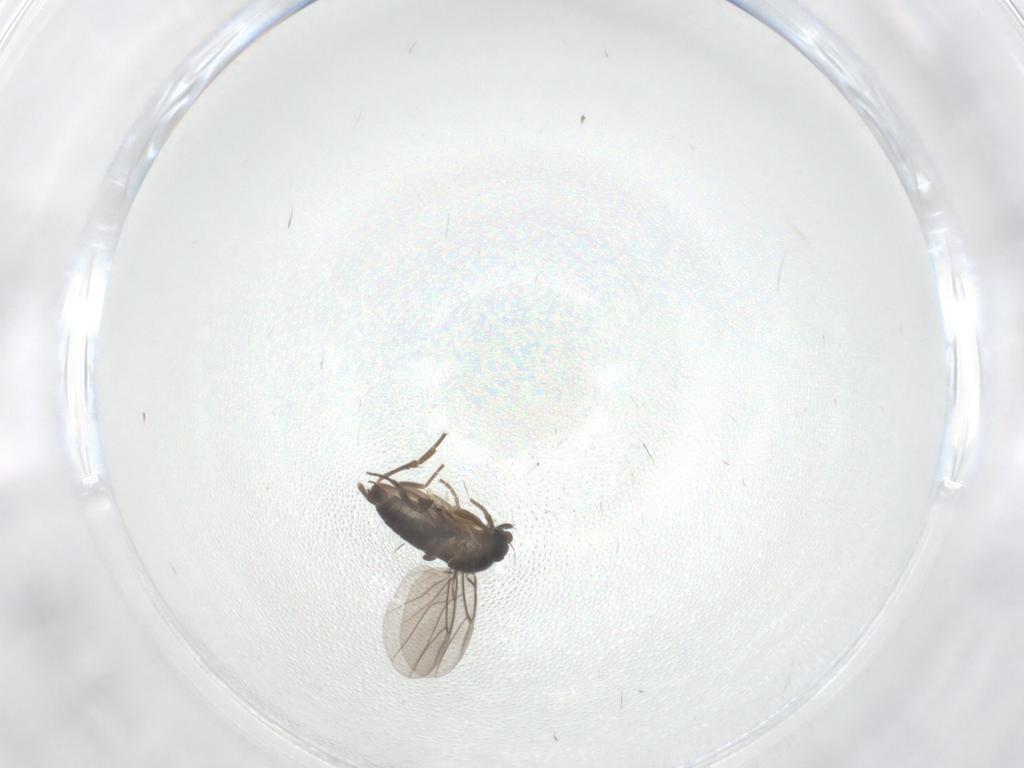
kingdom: Animalia
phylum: Arthropoda
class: Insecta
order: Diptera
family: Phoridae
